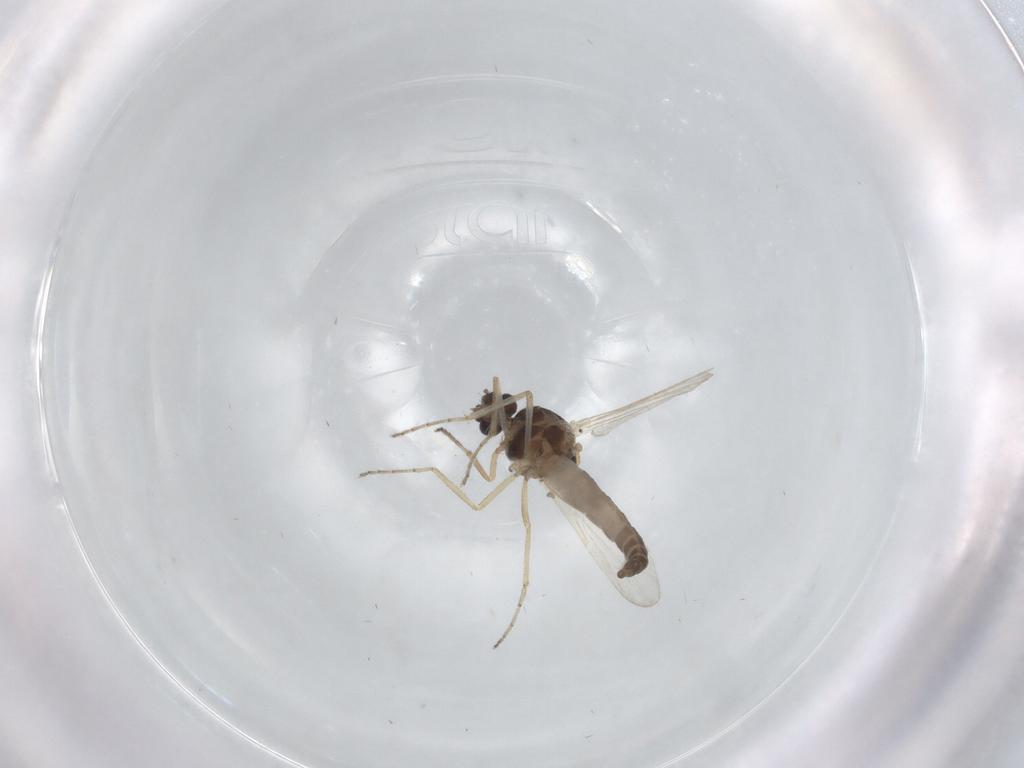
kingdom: Animalia
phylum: Arthropoda
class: Insecta
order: Diptera
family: Ceratopogonidae
